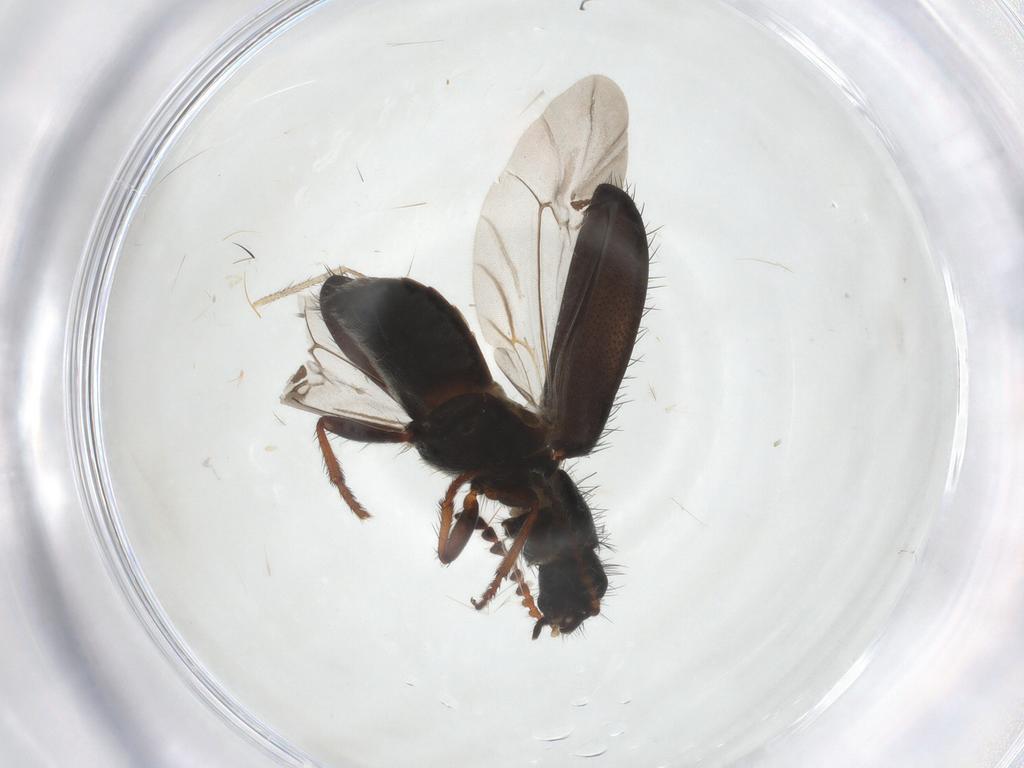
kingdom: Animalia
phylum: Arthropoda
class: Insecta
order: Coleoptera
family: Melyridae
